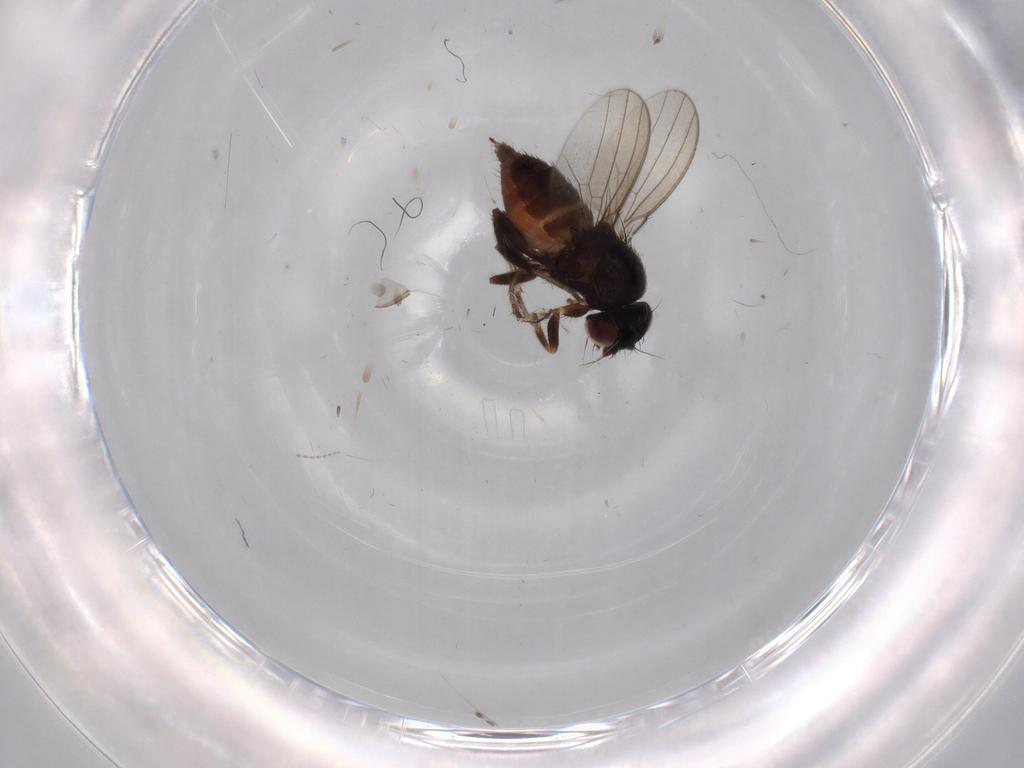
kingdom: Animalia
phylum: Arthropoda
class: Insecta
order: Diptera
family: Milichiidae
